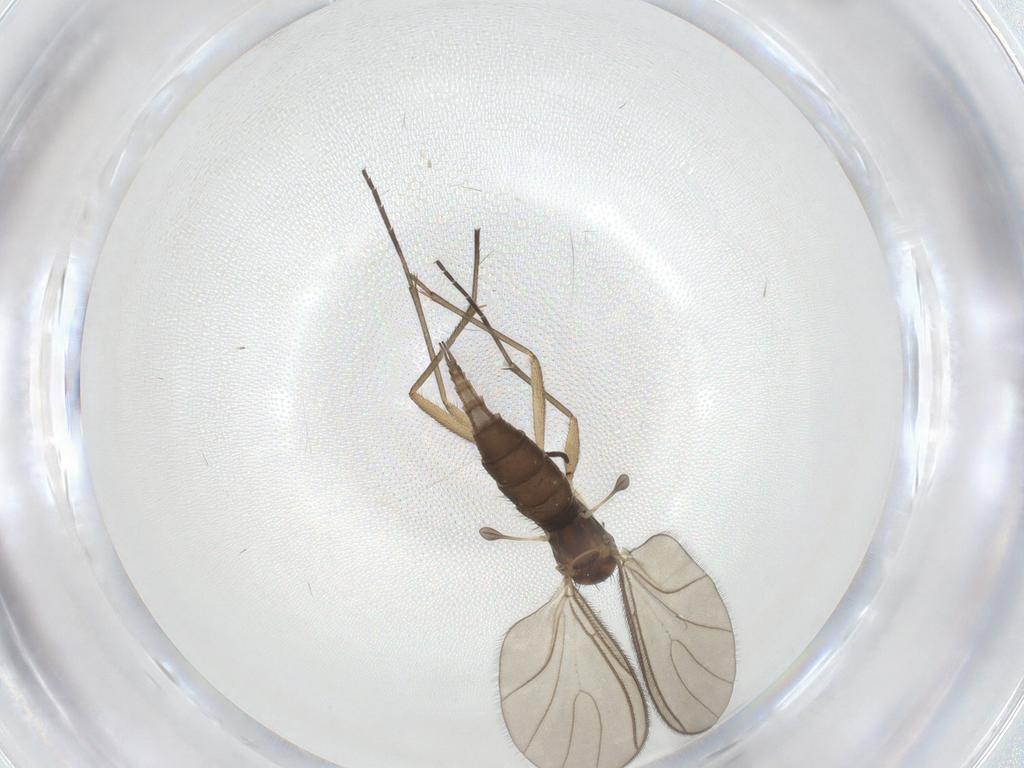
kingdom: Animalia
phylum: Arthropoda
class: Insecta
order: Diptera
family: Sciaridae
